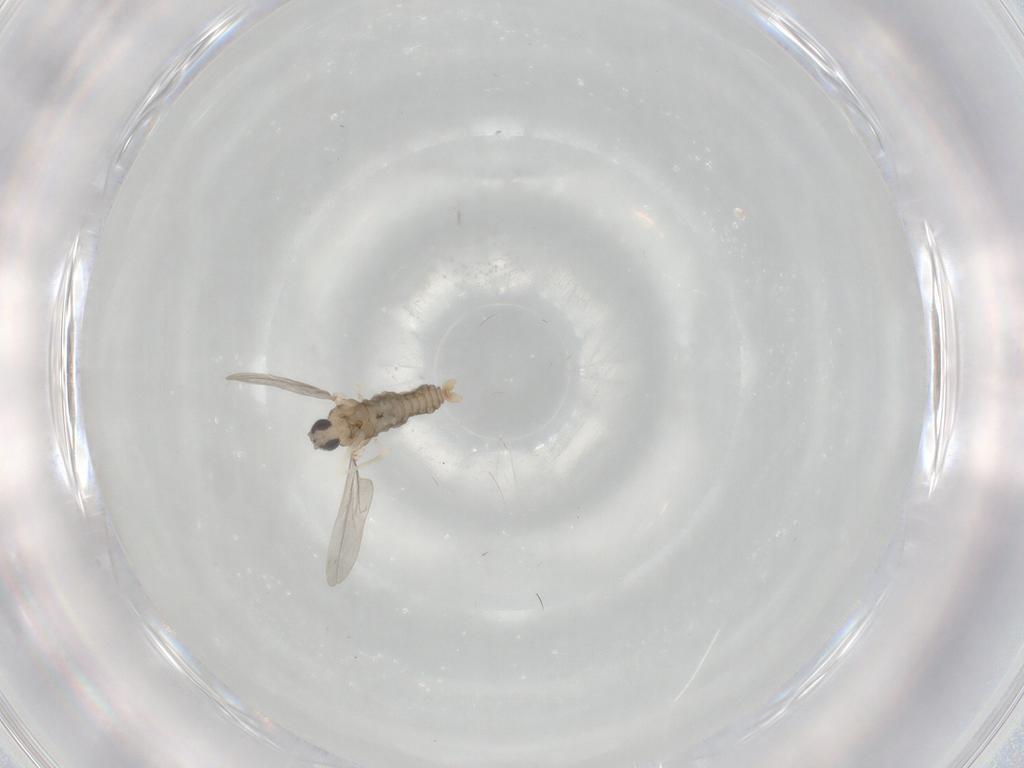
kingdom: Animalia
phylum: Arthropoda
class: Insecta
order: Diptera
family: Cecidomyiidae
